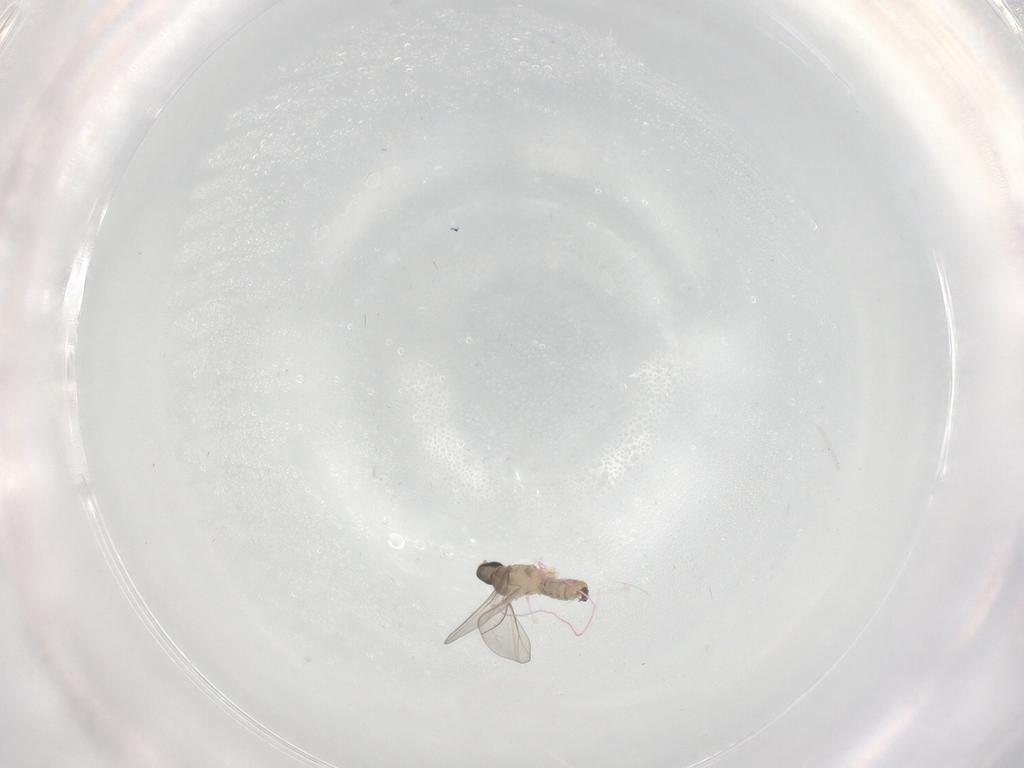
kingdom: Animalia
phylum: Arthropoda
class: Insecta
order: Diptera
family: Cecidomyiidae
